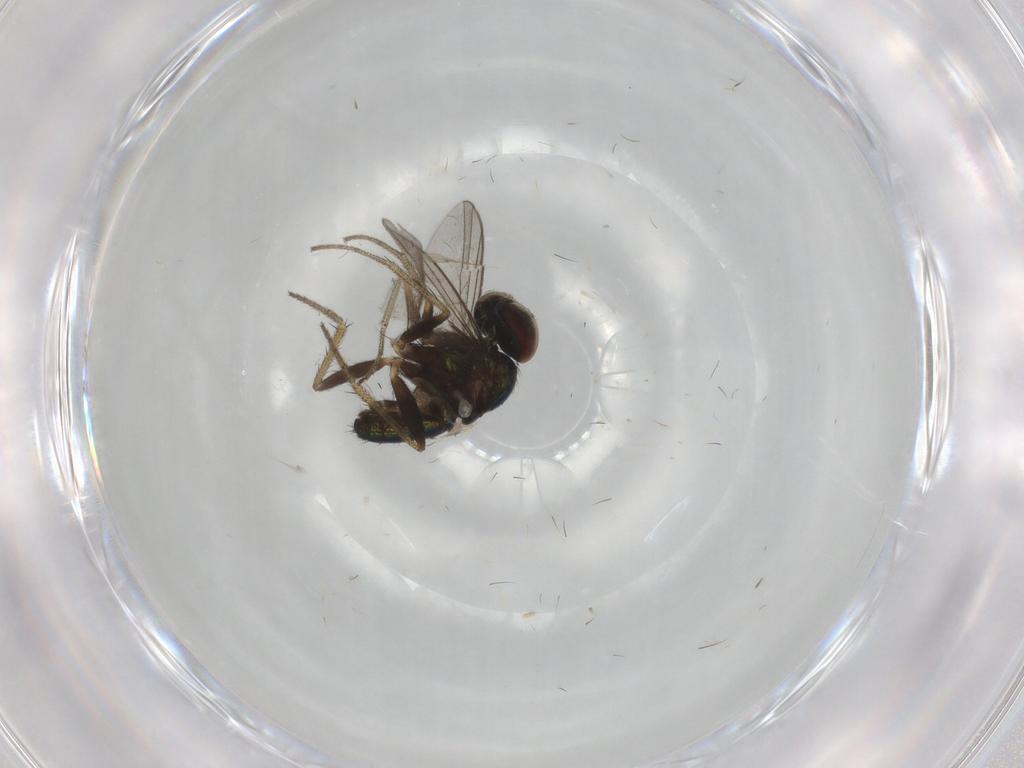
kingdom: Animalia
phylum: Arthropoda
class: Insecta
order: Diptera
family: Dolichopodidae
